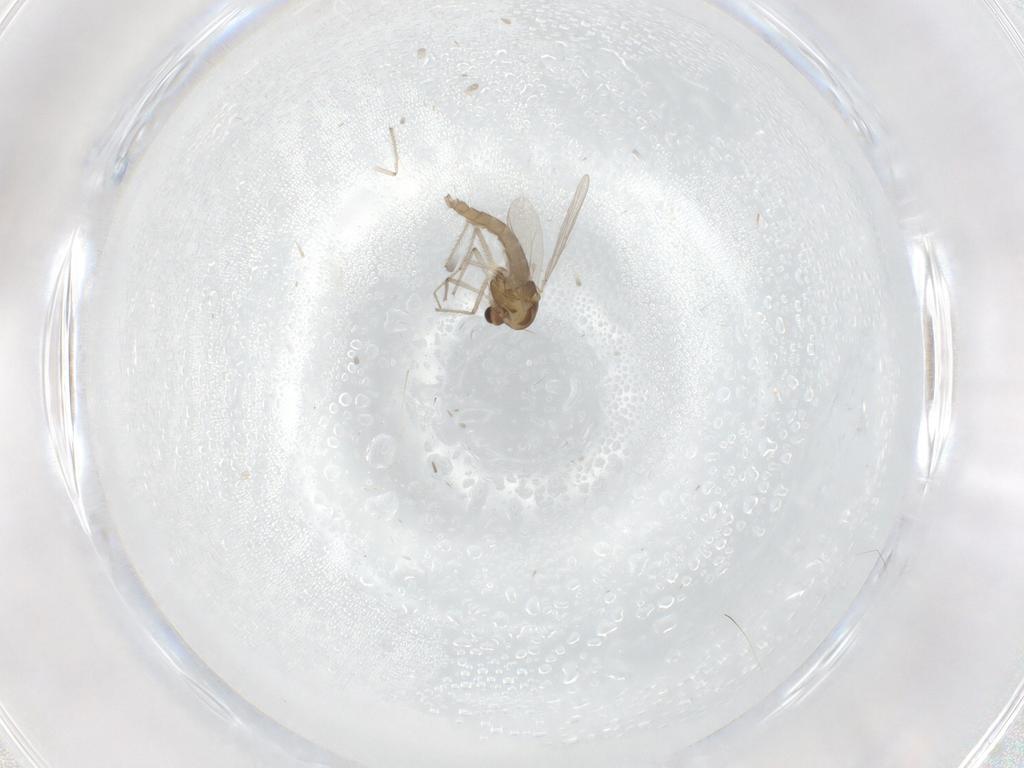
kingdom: Animalia
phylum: Arthropoda
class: Insecta
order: Diptera
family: Chironomidae
